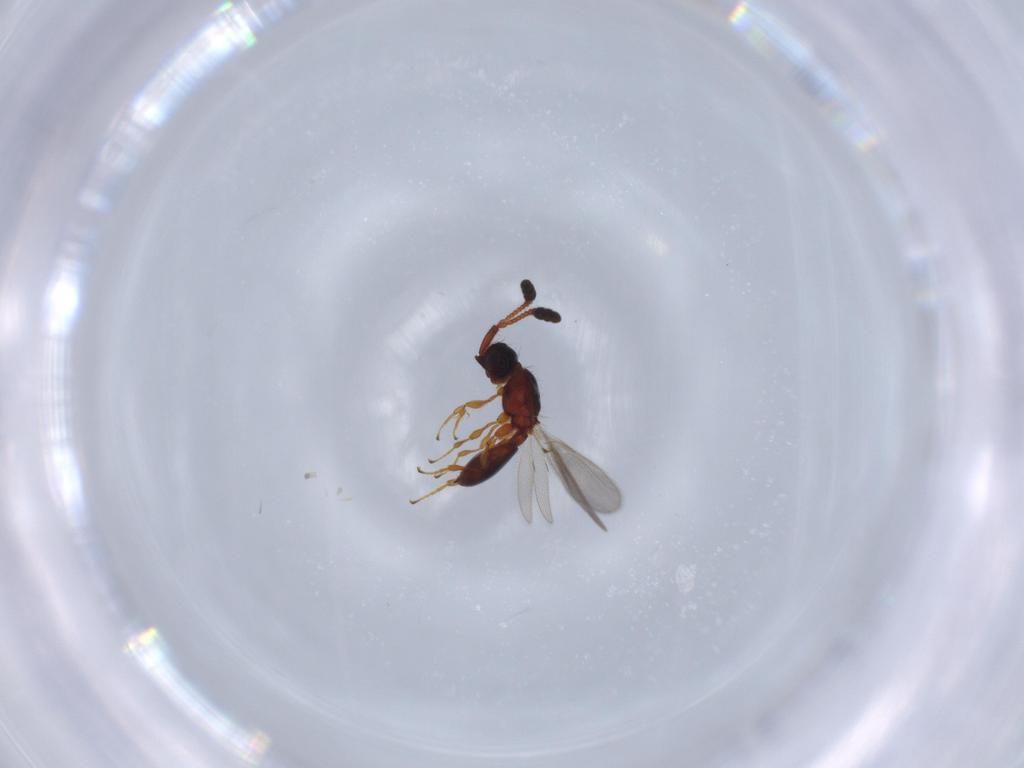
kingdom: Animalia
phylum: Arthropoda
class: Insecta
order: Hymenoptera
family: Diapriidae
